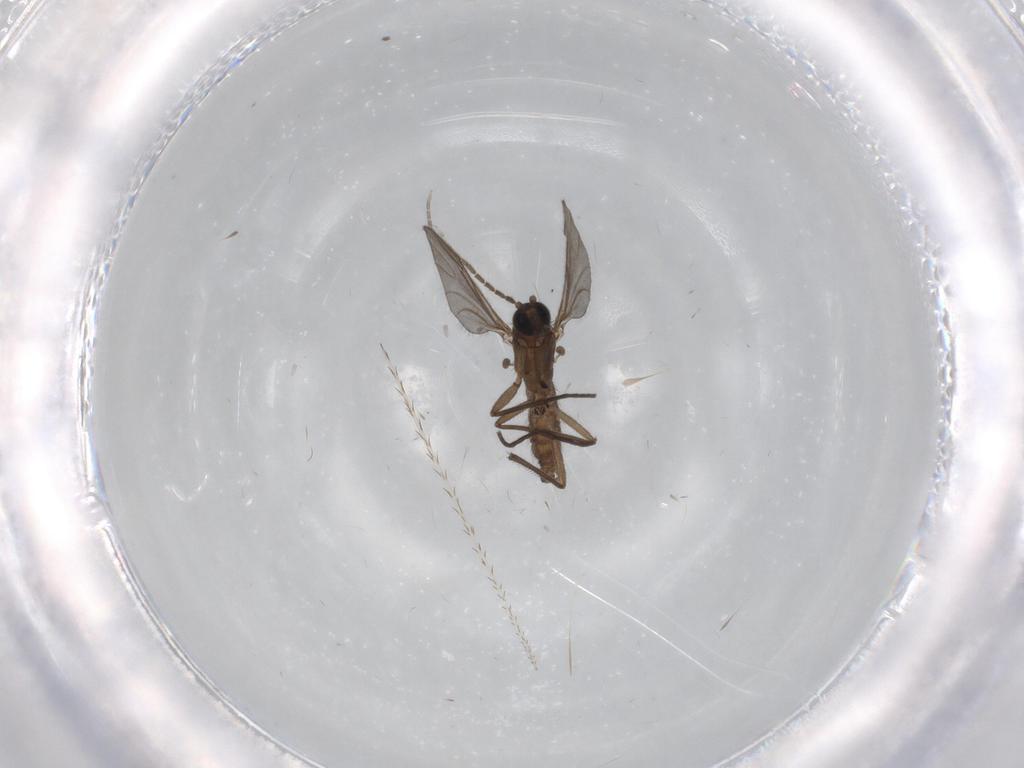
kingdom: Animalia
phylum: Arthropoda
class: Insecta
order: Diptera
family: Sciaridae
